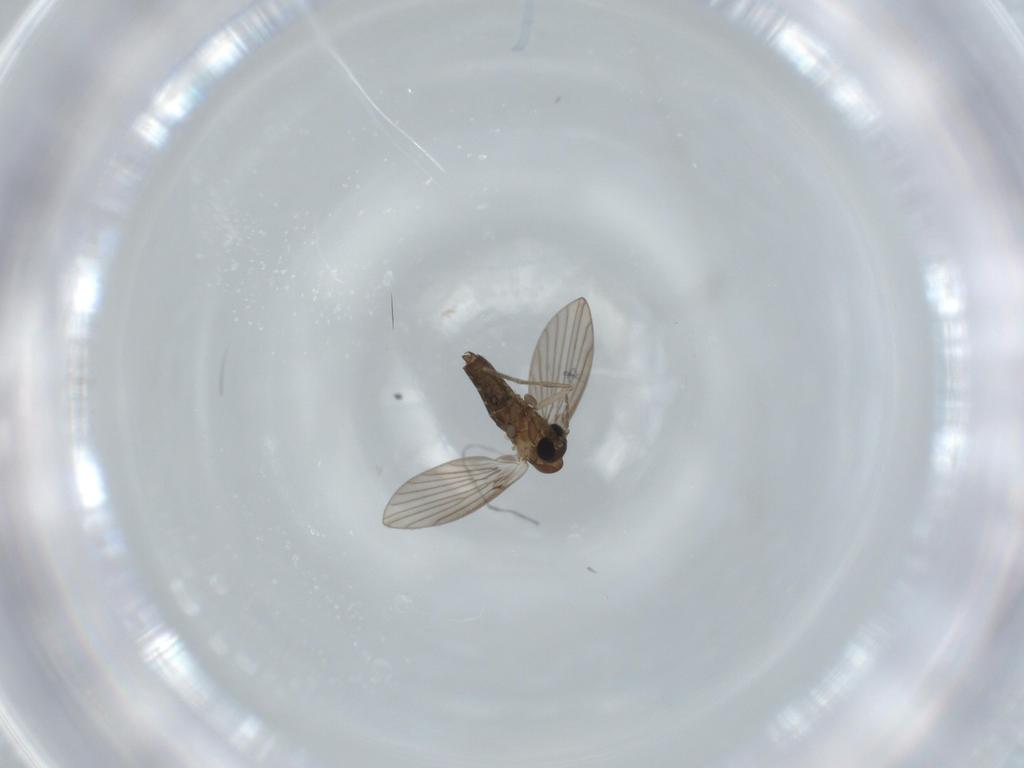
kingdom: Animalia
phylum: Arthropoda
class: Insecta
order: Diptera
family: Psychodidae
